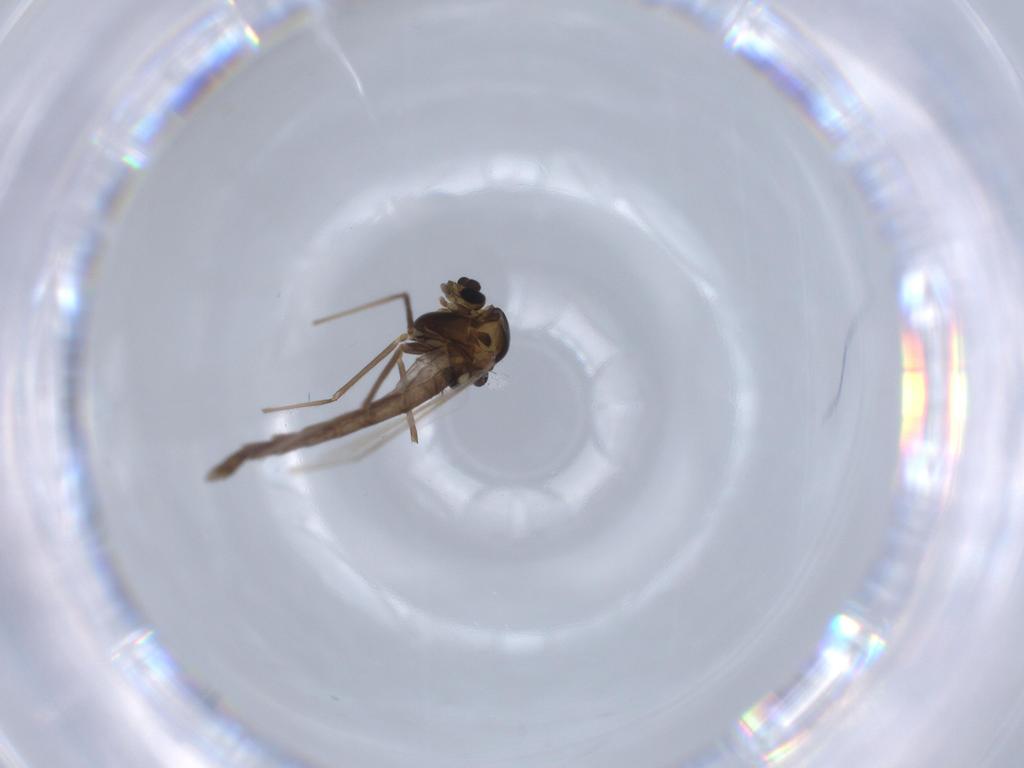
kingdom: Animalia
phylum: Arthropoda
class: Insecta
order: Diptera
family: Chironomidae
